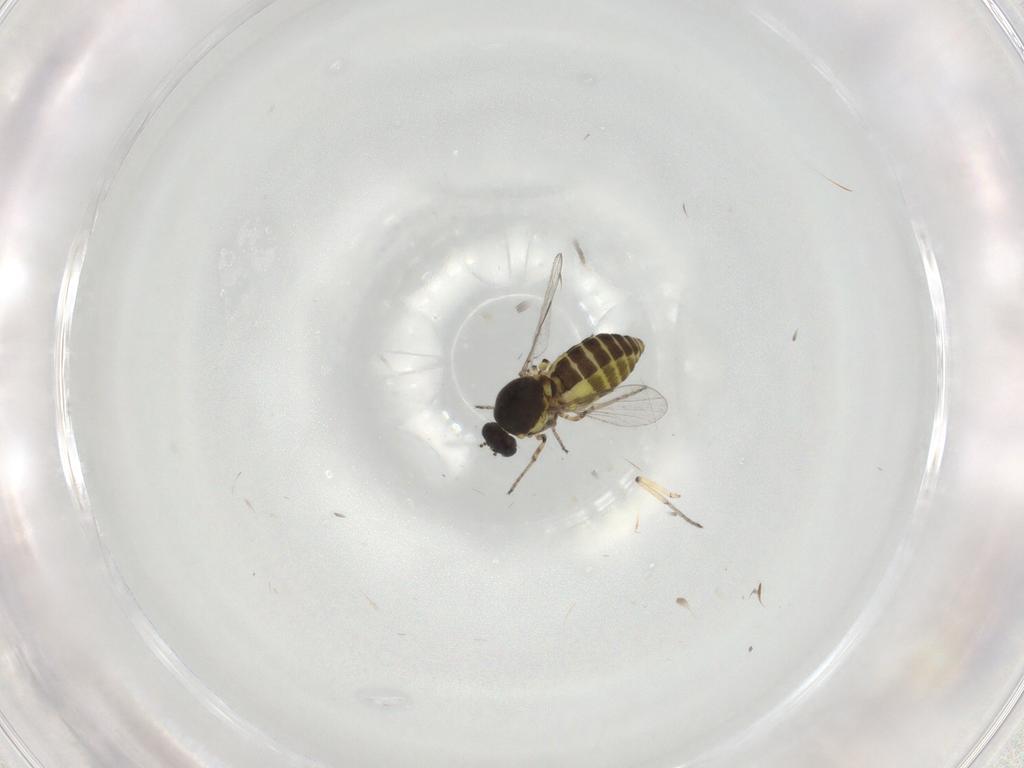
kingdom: Animalia
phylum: Arthropoda
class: Insecta
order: Diptera
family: Ceratopogonidae
